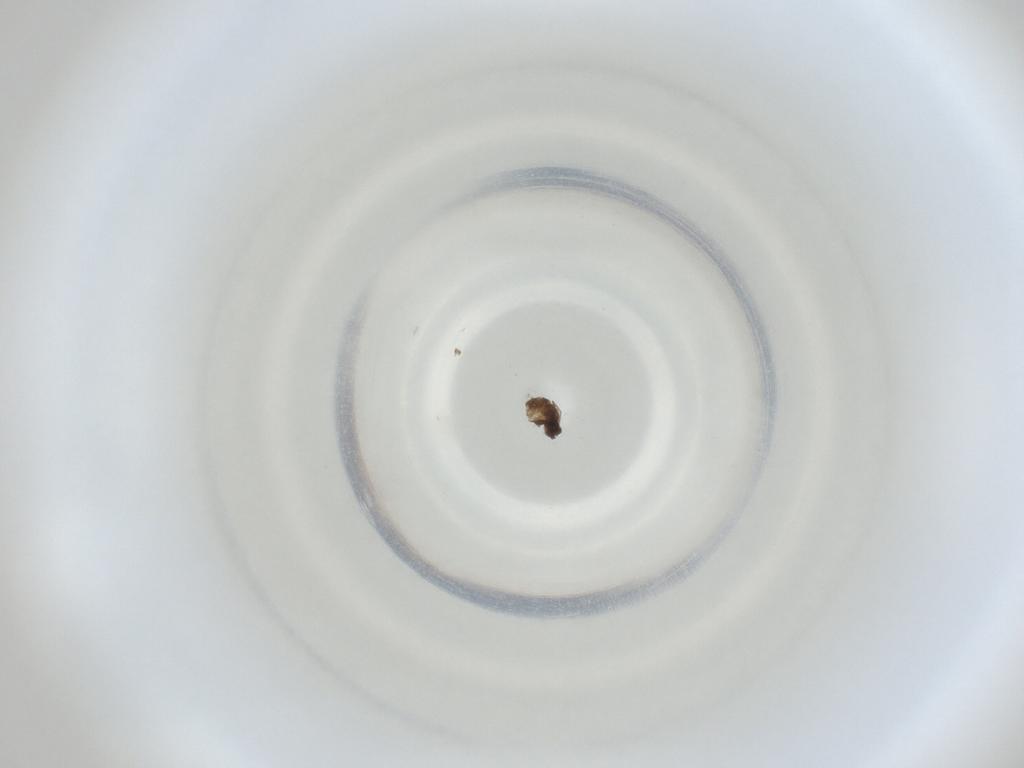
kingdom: Animalia
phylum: Arthropoda
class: Insecta
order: Diptera
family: Cecidomyiidae
